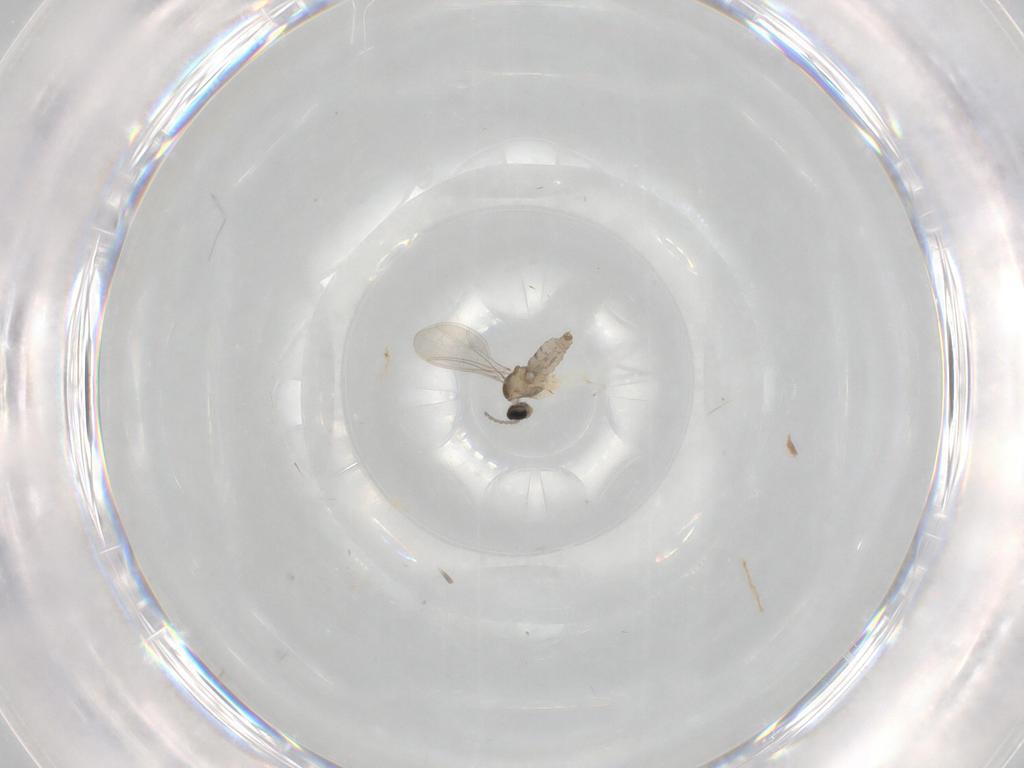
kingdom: Animalia
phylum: Arthropoda
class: Insecta
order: Diptera
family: Cecidomyiidae
